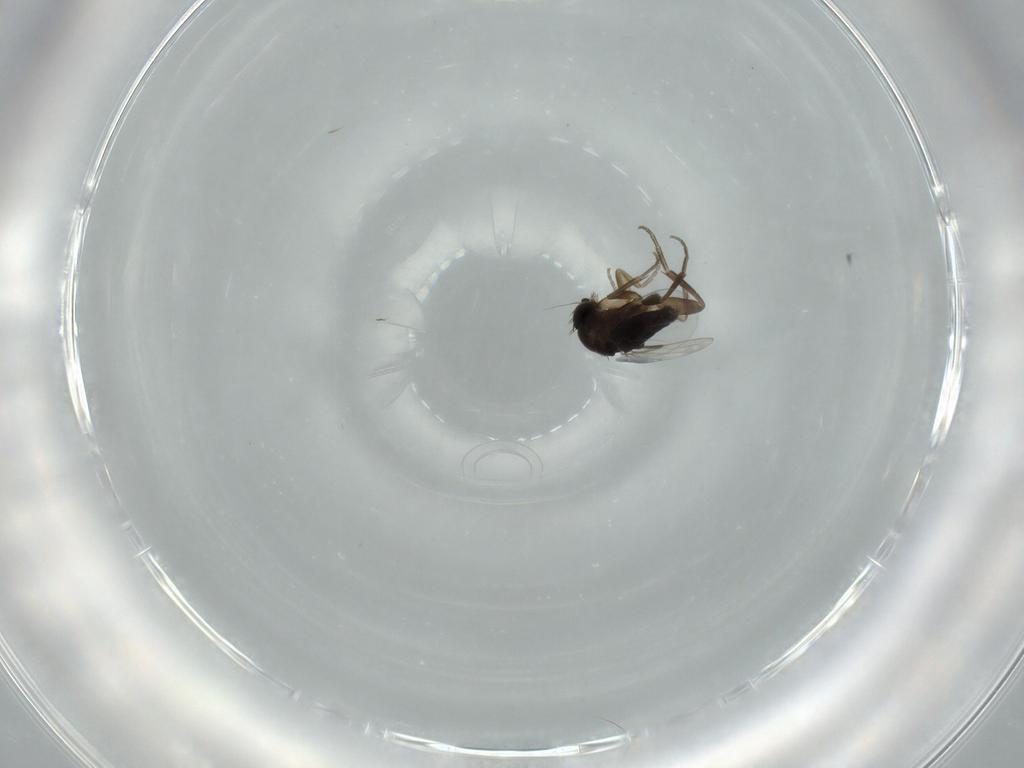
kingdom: Animalia
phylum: Arthropoda
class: Insecta
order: Diptera
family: Phoridae
